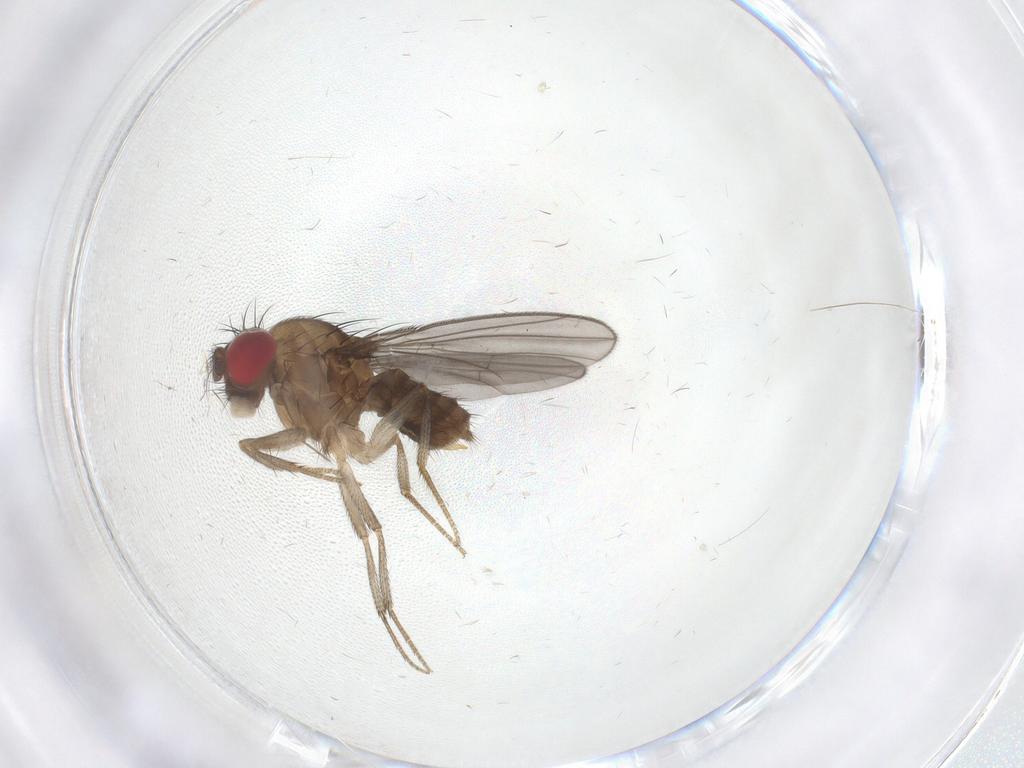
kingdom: Animalia
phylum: Arthropoda
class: Insecta
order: Diptera
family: Drosophilidae
